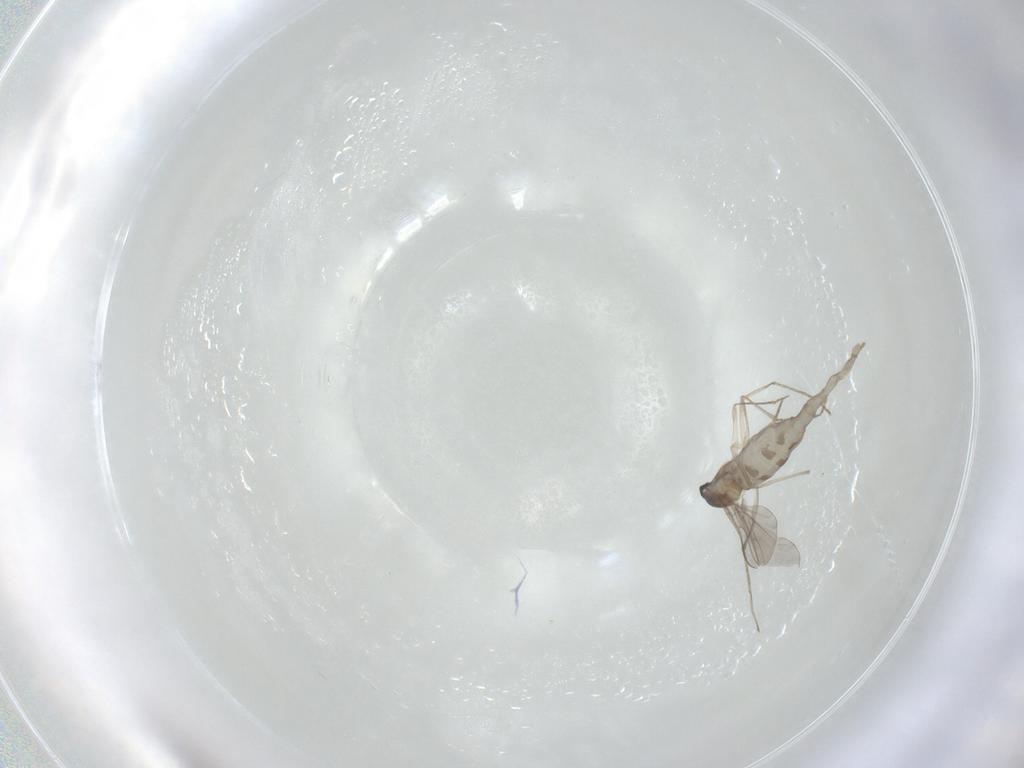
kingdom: Animalia
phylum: Arthropoda
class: Insecta
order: Diptera
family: Cecidomyiidae
